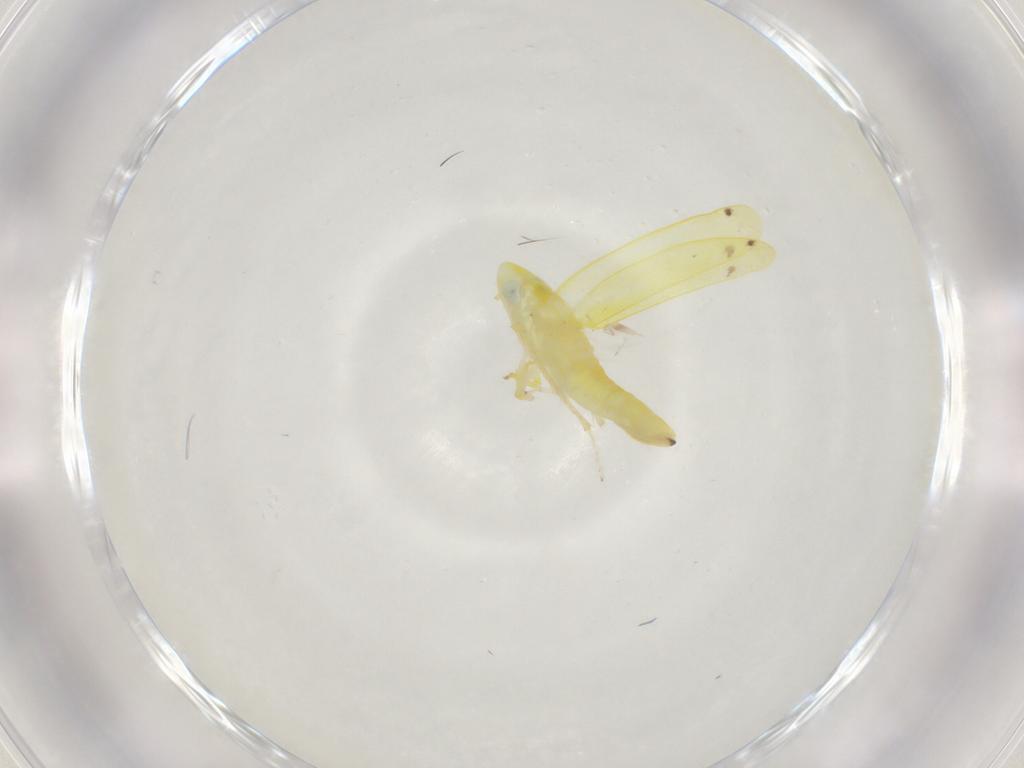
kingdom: Animalia
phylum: Arthropoda
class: Insecta
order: Hemiptera
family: Cicadellidae
